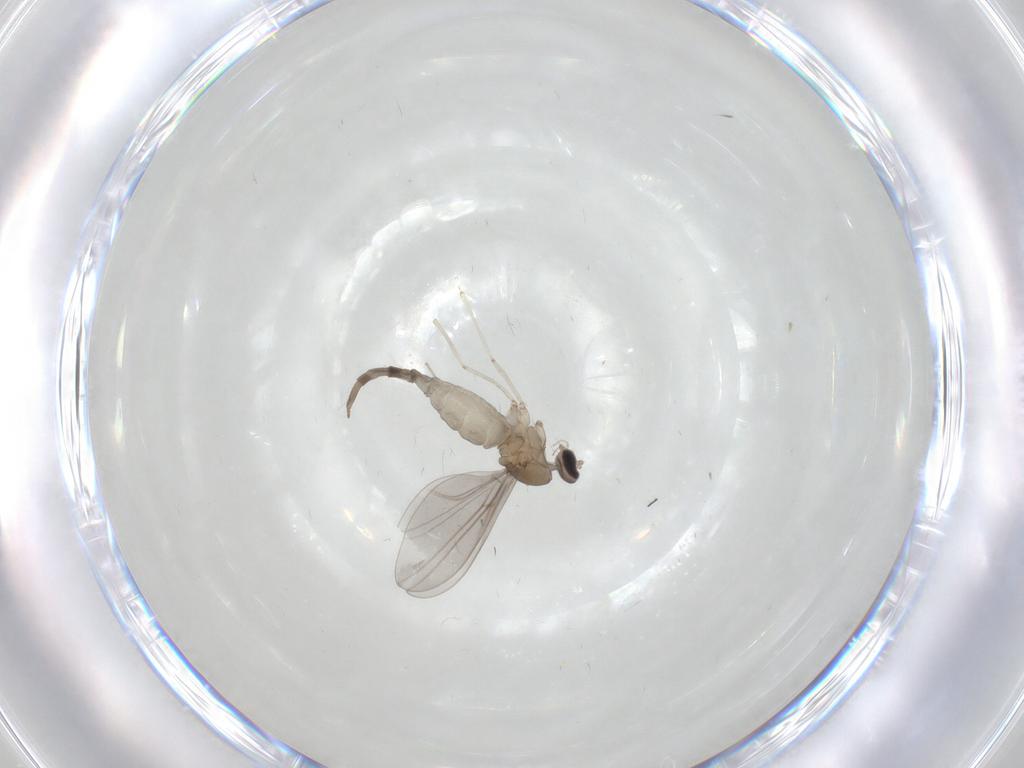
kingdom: Animalia
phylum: Arthropoda
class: Insecta
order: Diptera
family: Cecidomyiidae
